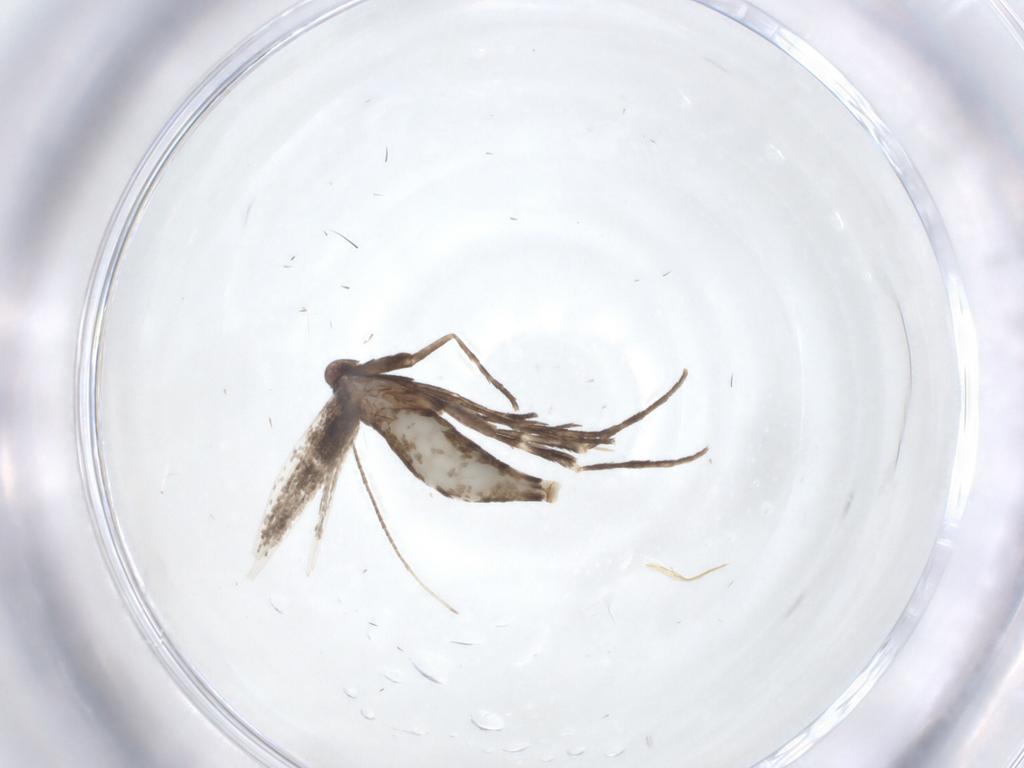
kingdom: Animalia
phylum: Arthropoda
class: Insecta
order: Lepidoptera
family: Gracillariidae
